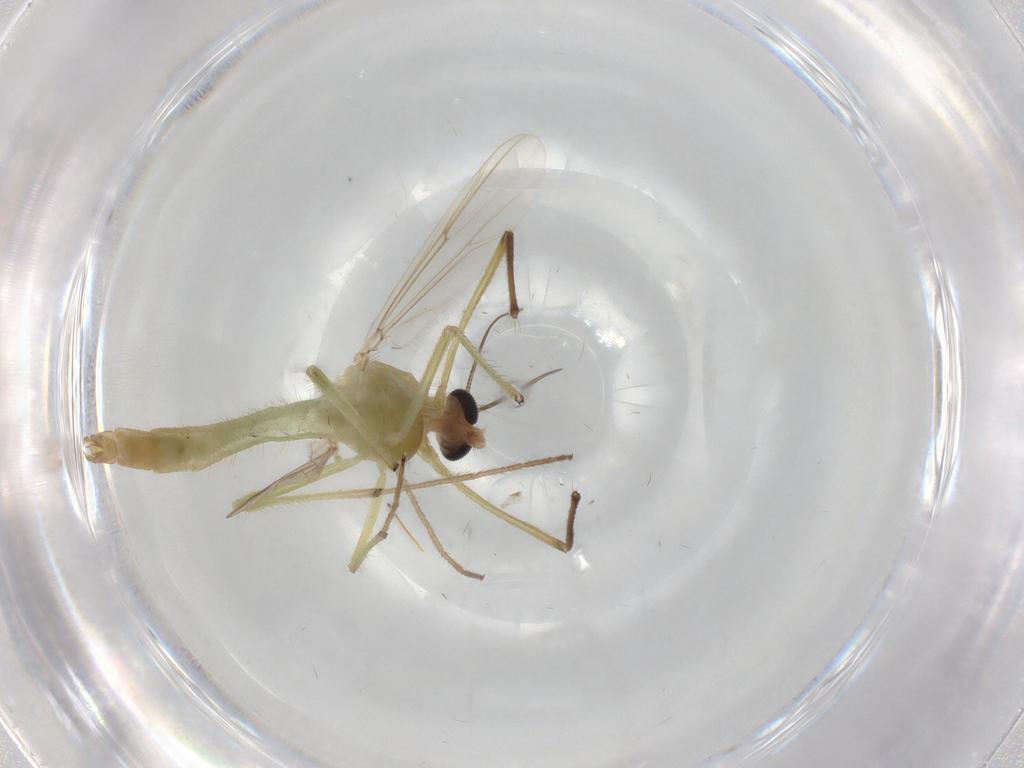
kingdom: Animalia
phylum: Arthropoda
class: Insecta
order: Diptera
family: Chironomidae
